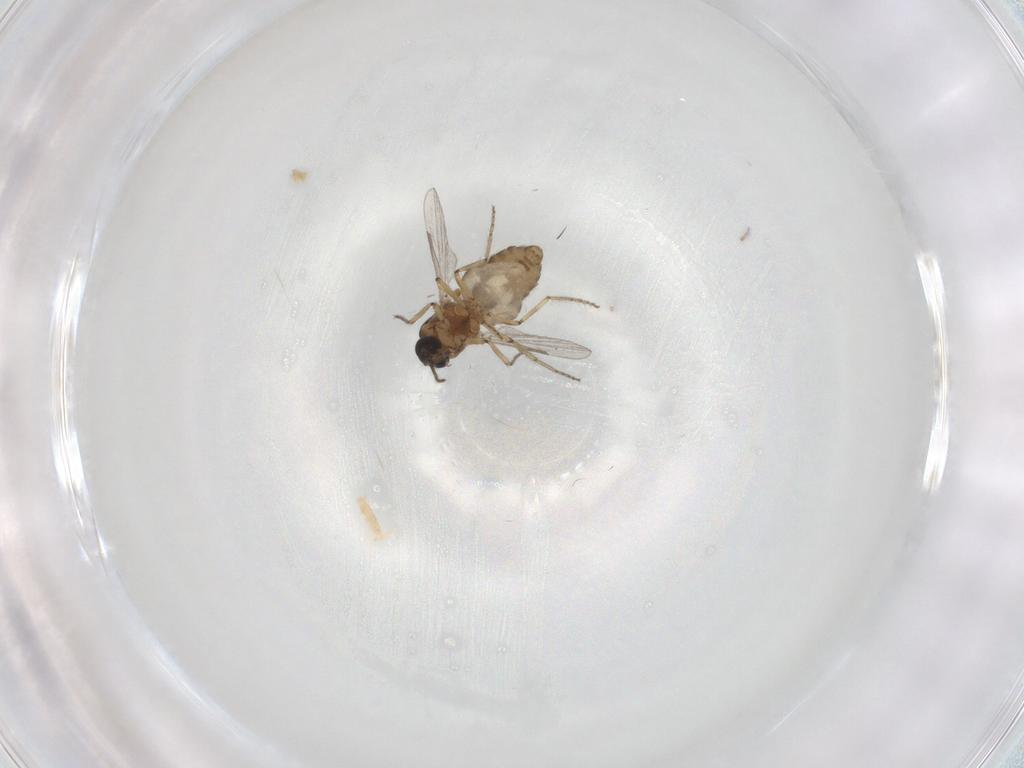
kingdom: Animalia
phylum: Arthropoda
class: Insecta
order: Diptera
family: Ceratopogonidae
